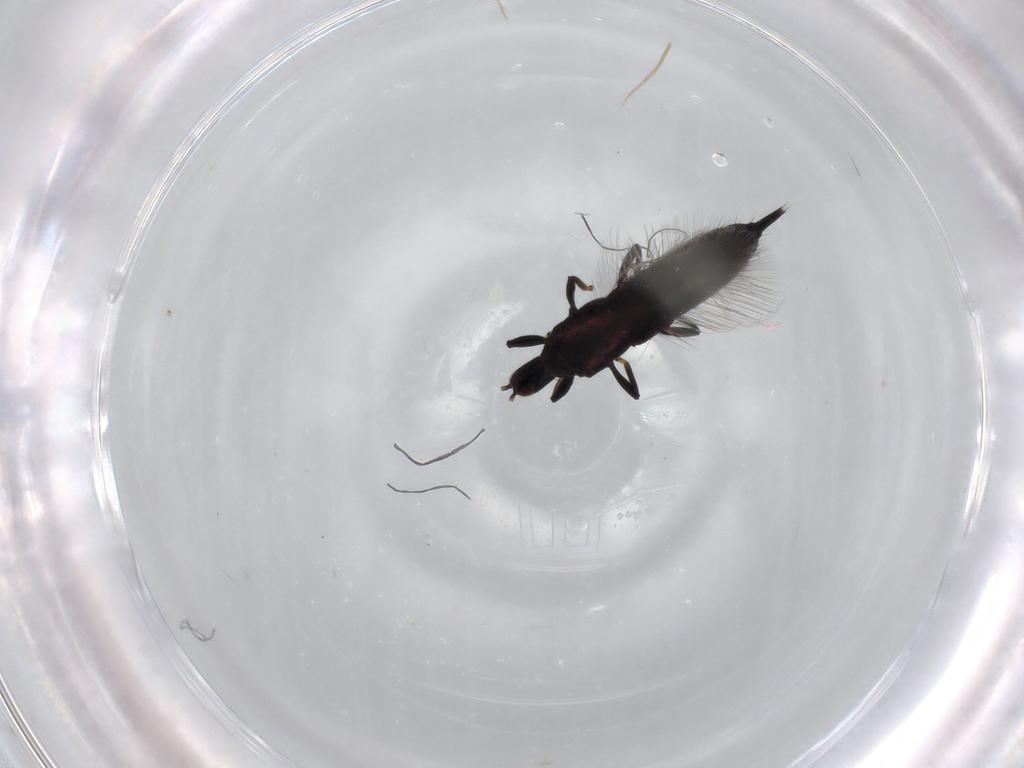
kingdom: Animalia
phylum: Arthropoda
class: Insecta
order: Thysanoptera
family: Phlaeothripidae
